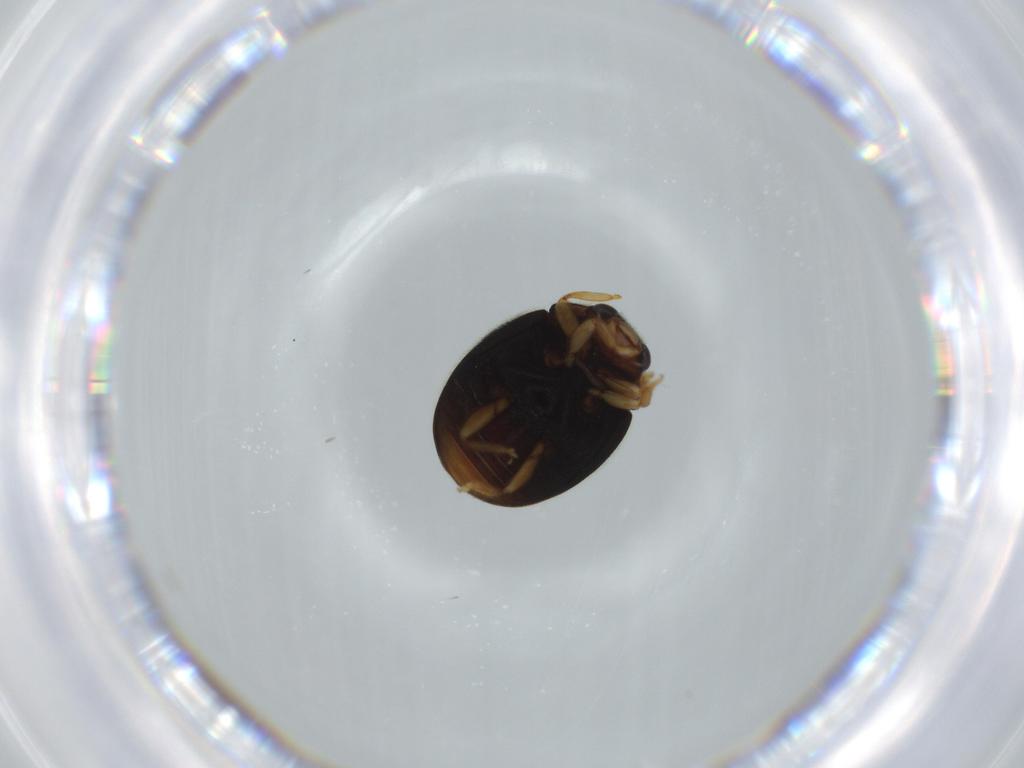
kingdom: Animalia
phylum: Arthropoda
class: Insecta
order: Coleoptera
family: Coccinellidae
